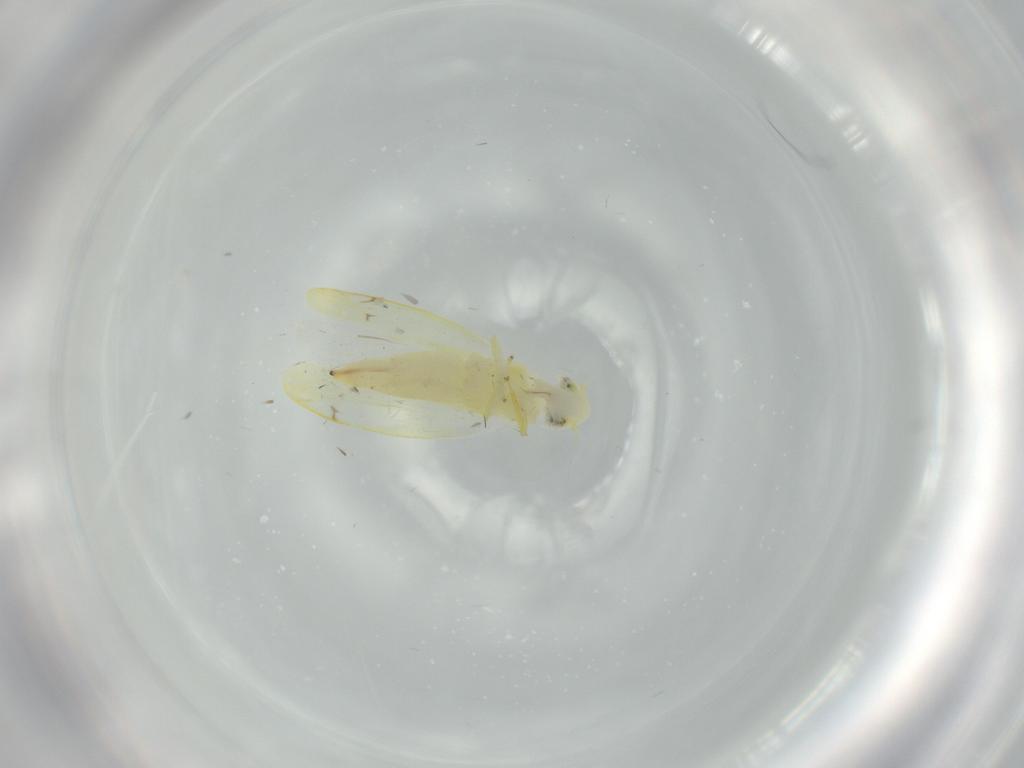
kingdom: Animalia
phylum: Arthropoda
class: Insecta
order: Hemiptera
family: Cicadellidae
